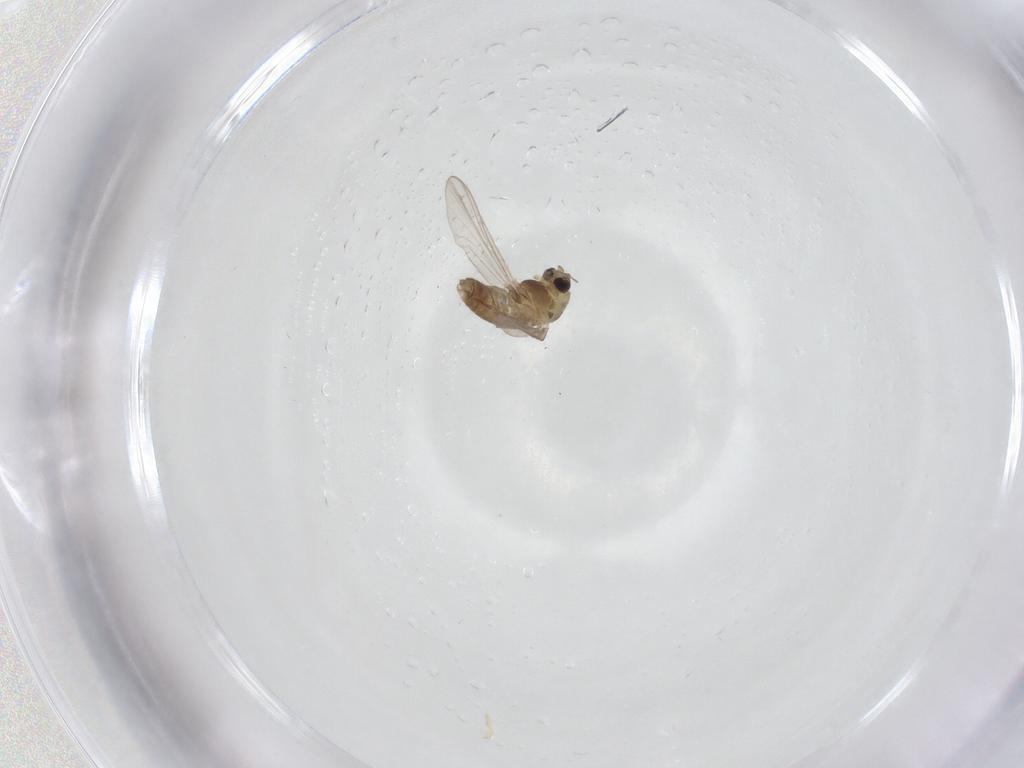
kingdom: Animalia
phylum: Arthropoda
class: Insecta
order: Diptera
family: Chironomidae
